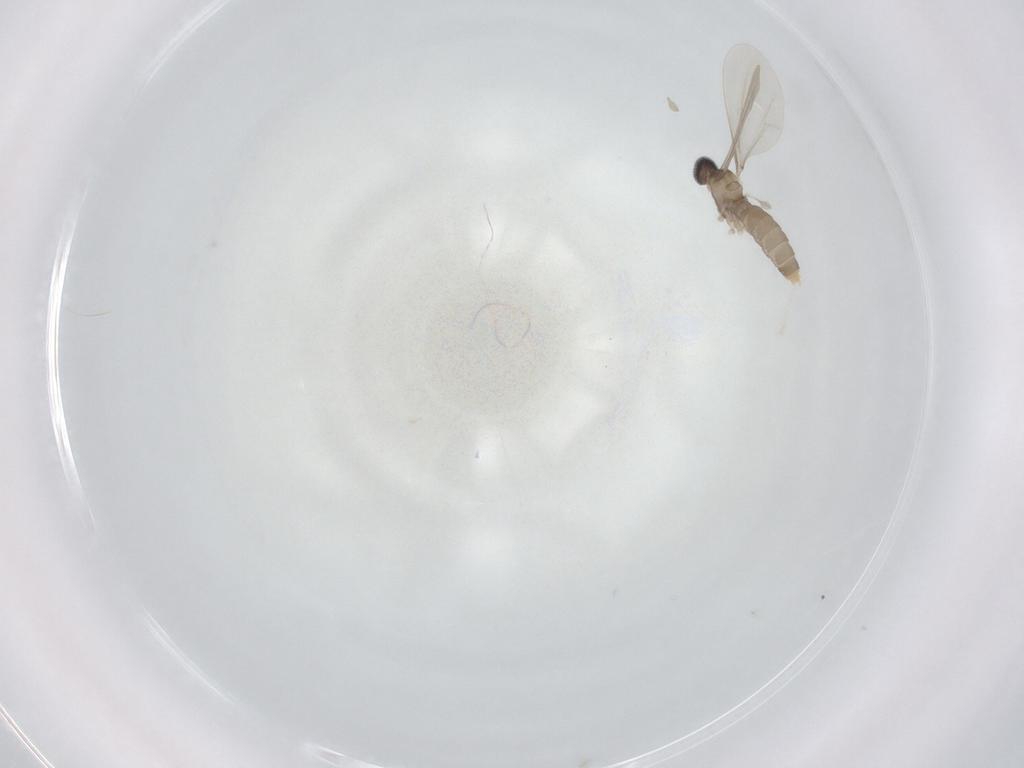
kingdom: Animalia
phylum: Arthropoda
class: Insecta
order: Diptera
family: Cecidomyiidae
